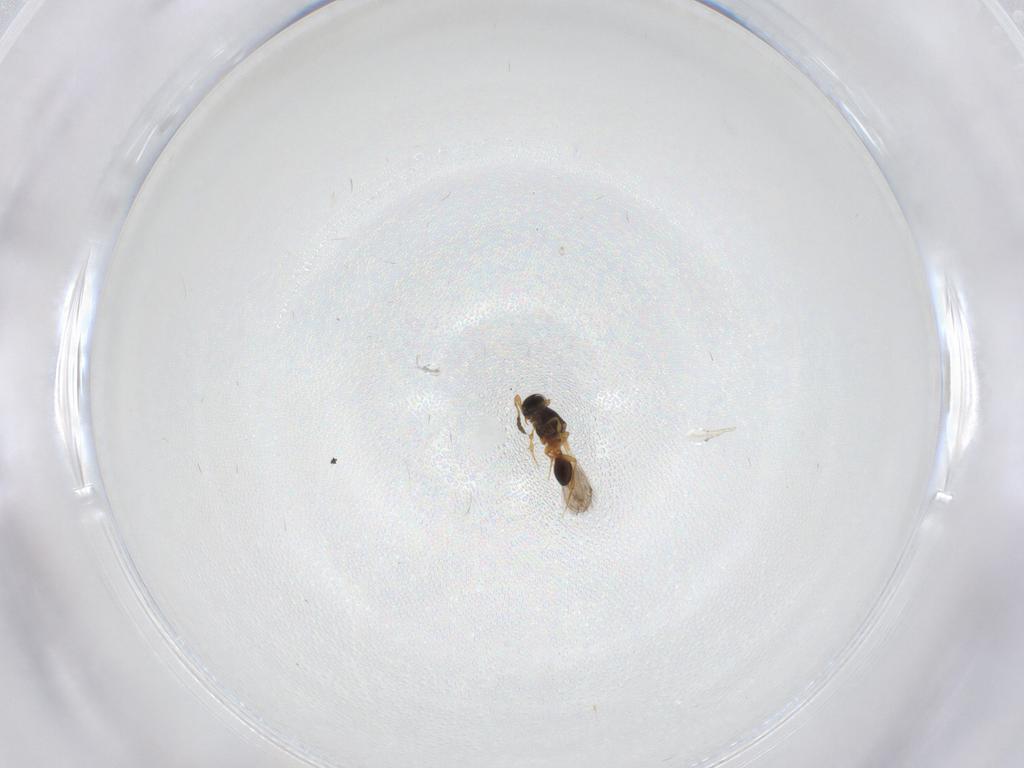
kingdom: Animalia
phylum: Arthropoda
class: Insecta
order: Hymenoptera
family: Platygastridae
